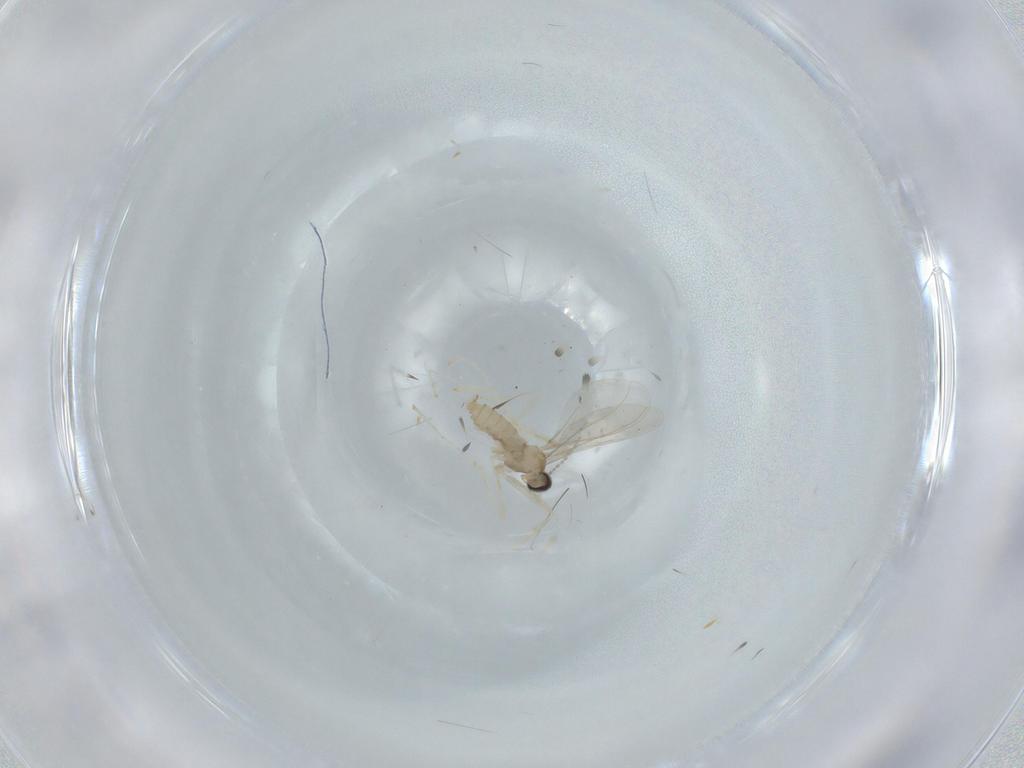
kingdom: Animalia
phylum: Arthropoda
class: Insecta
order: Diptera
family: Cecidomyiidae
